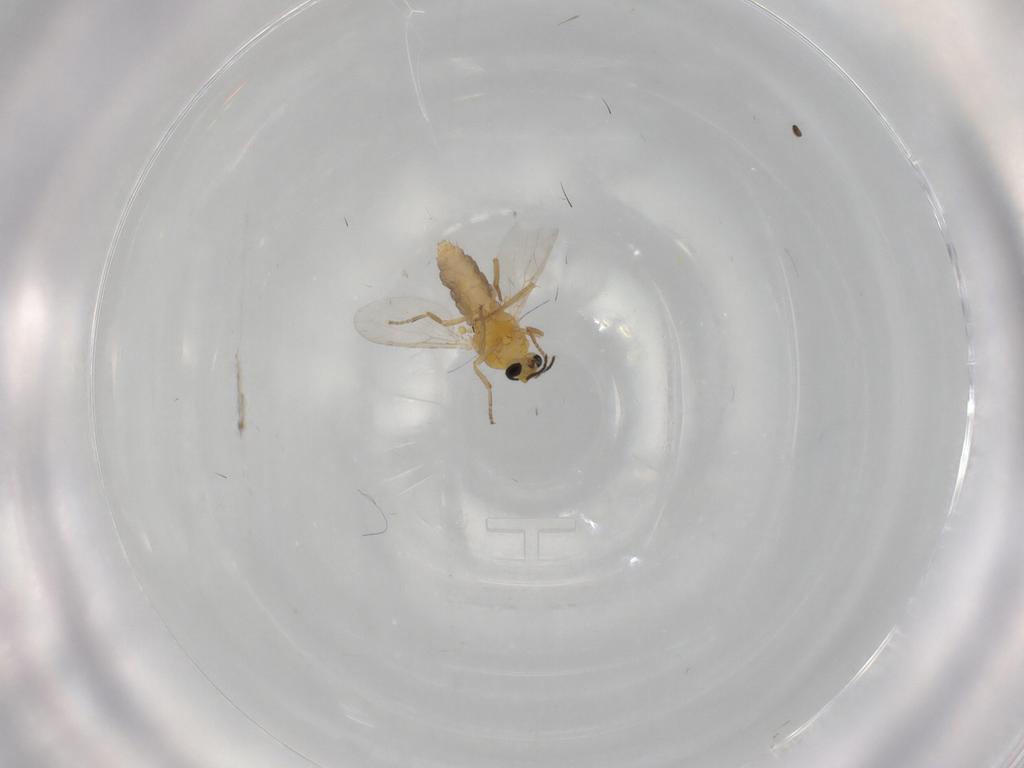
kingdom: Animalia
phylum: Arthropoda
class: Insecta
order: Diptera
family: Ceratopogonidae
